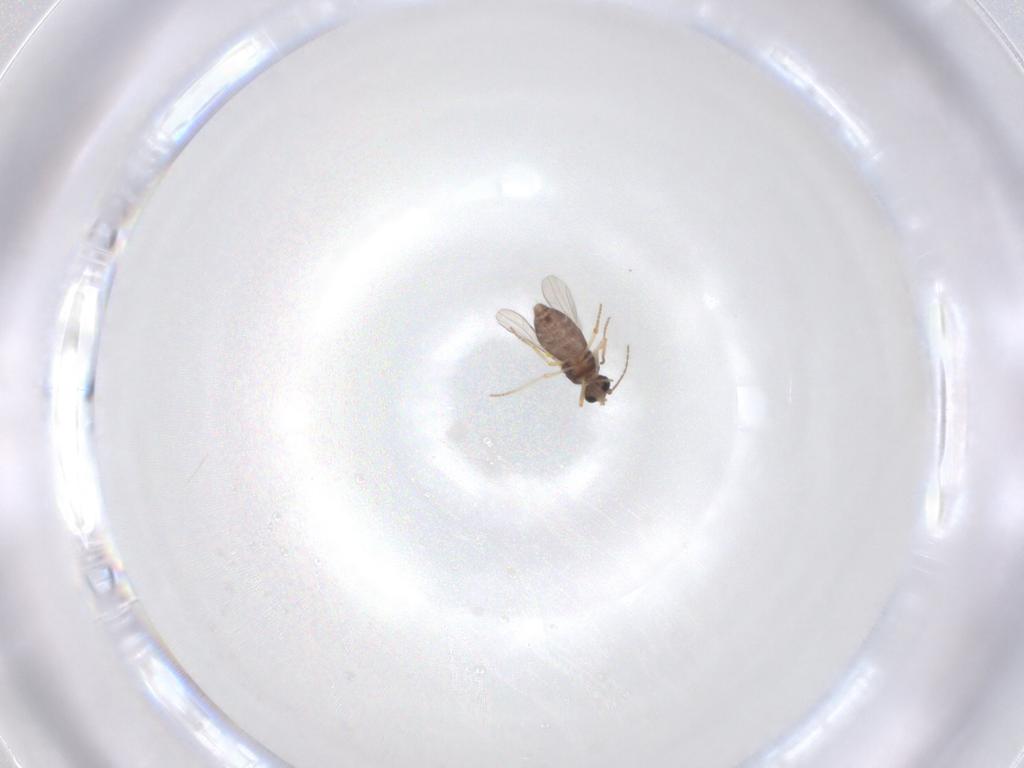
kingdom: Animalia
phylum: Arthropoda
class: Insecta
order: Diptera
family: Ceratopogonidae
